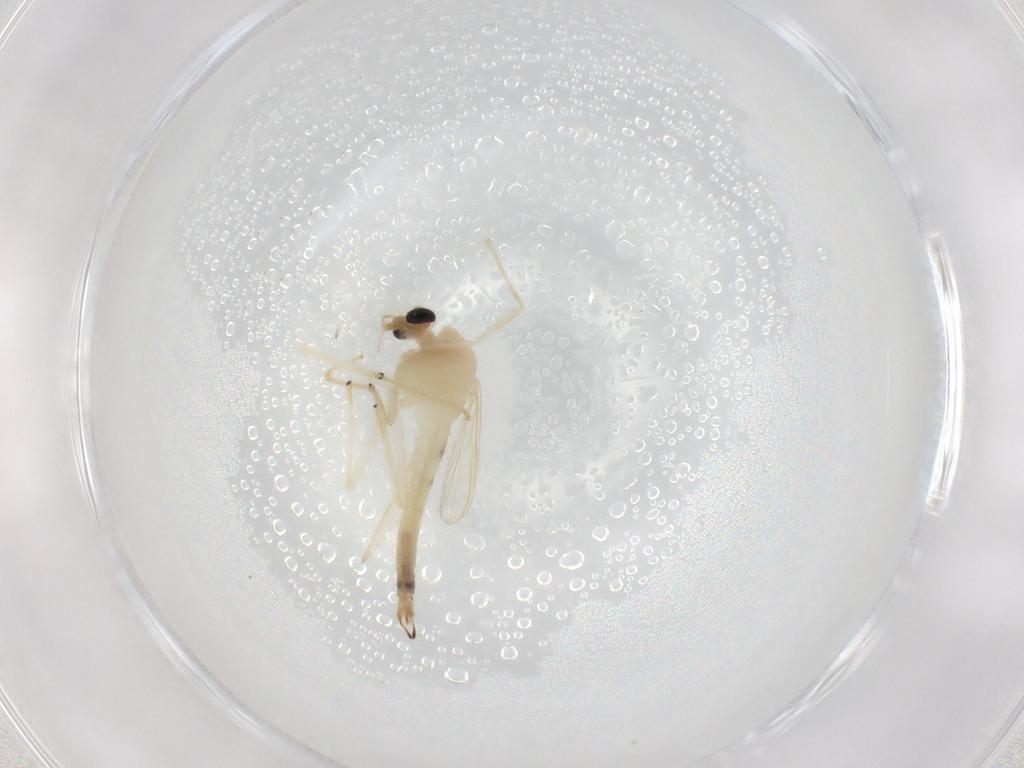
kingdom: Animalia
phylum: Arthropoda
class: Insecta
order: Diptera
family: Chironomidae
